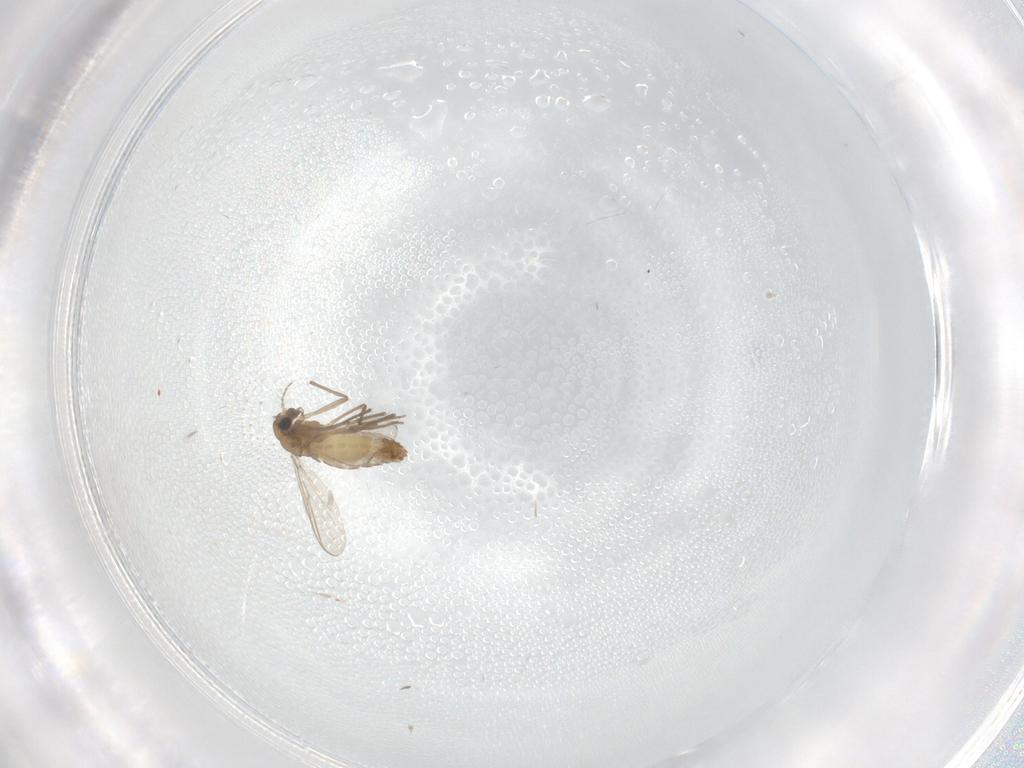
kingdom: Animalia
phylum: Arthropoda
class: Insecta
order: Diptera
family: Chironomidae
